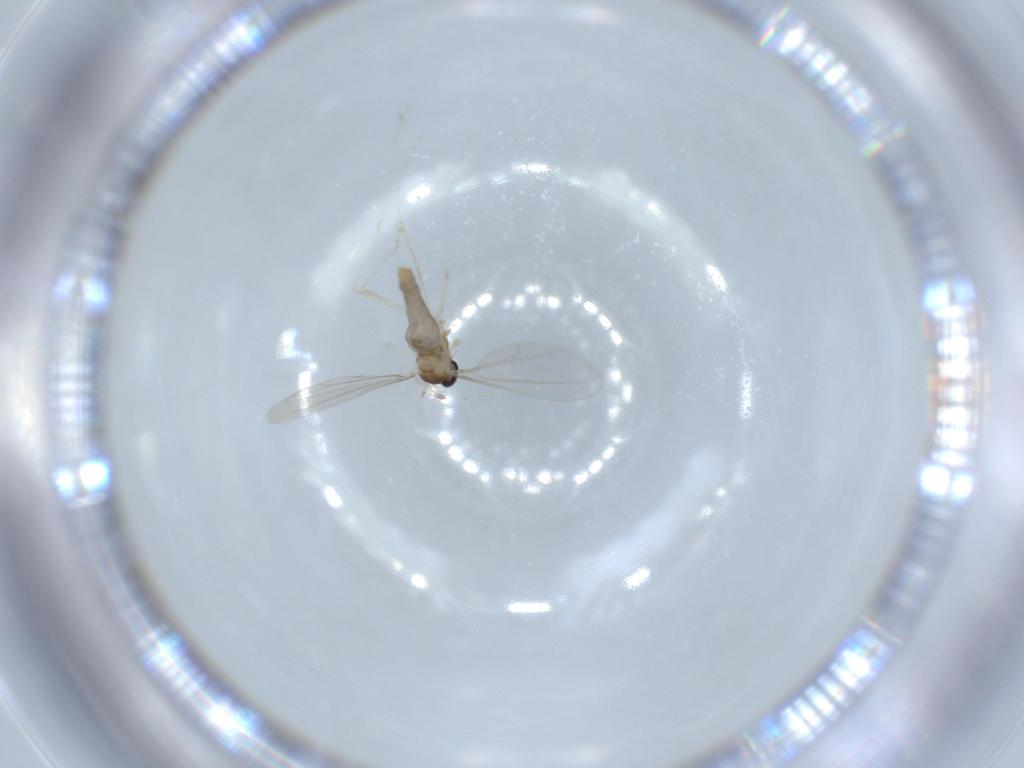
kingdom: Animalia
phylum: Arthropoda
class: Insecta
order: Diptera
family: Cecidomyiidae
